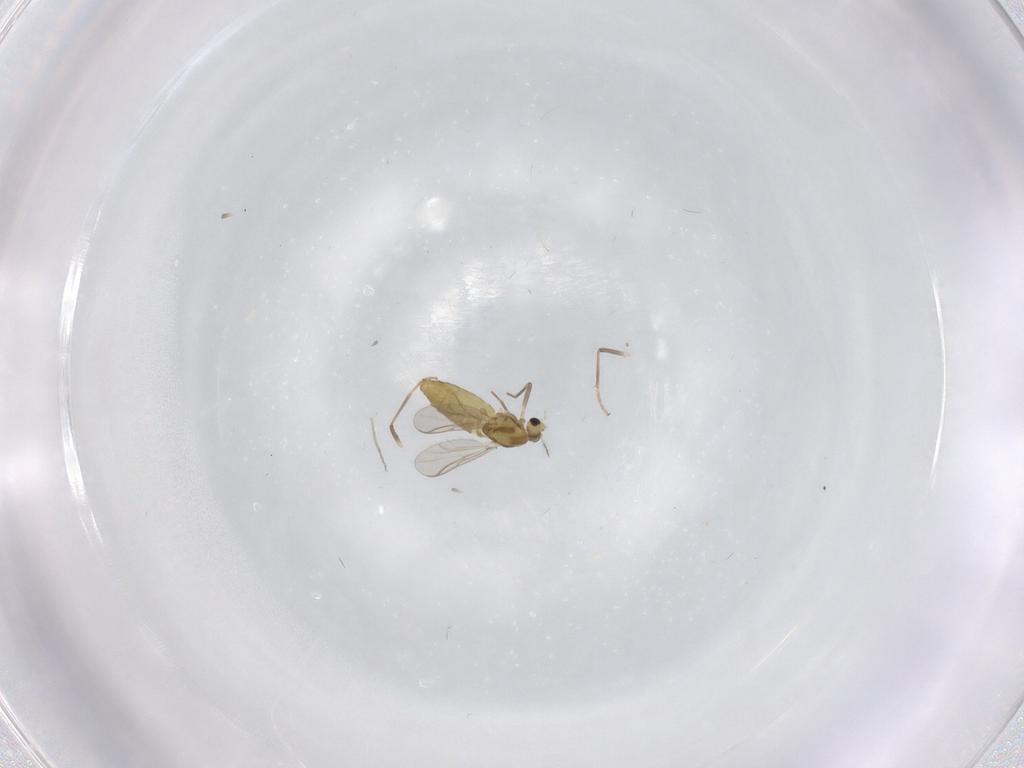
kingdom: Animalia
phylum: Arthropoda
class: Insecta
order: Diptera
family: Chironomidae
